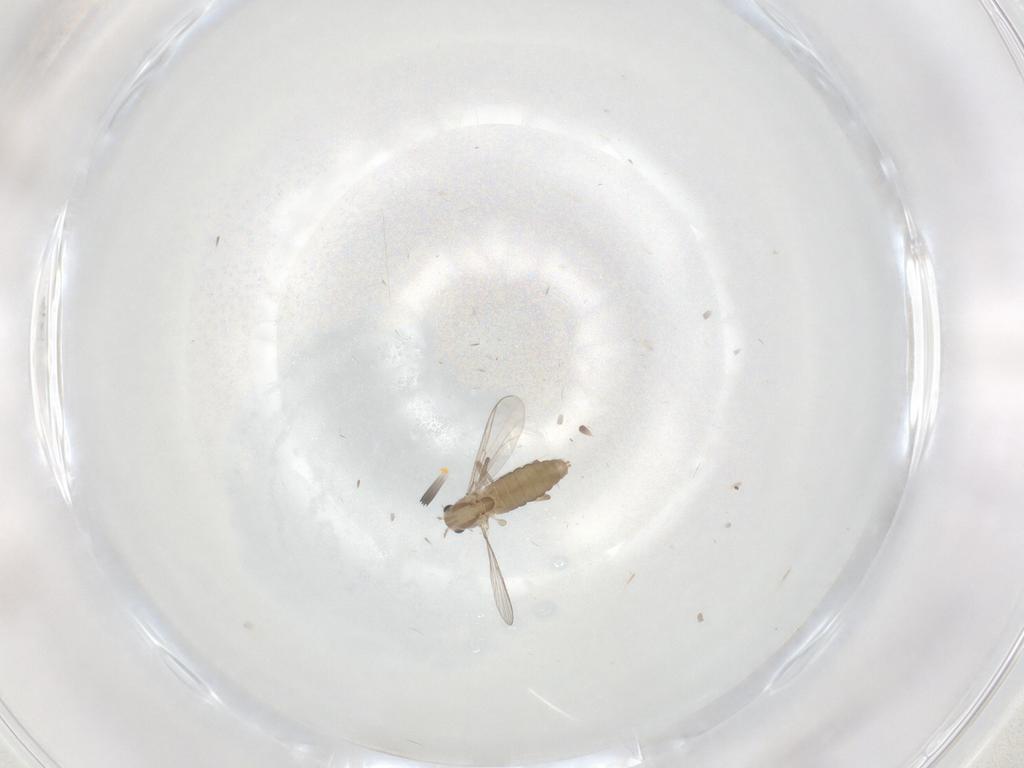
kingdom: Animalia
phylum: Arthropoda
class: Insecta
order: Diptera
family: Chironomidae
